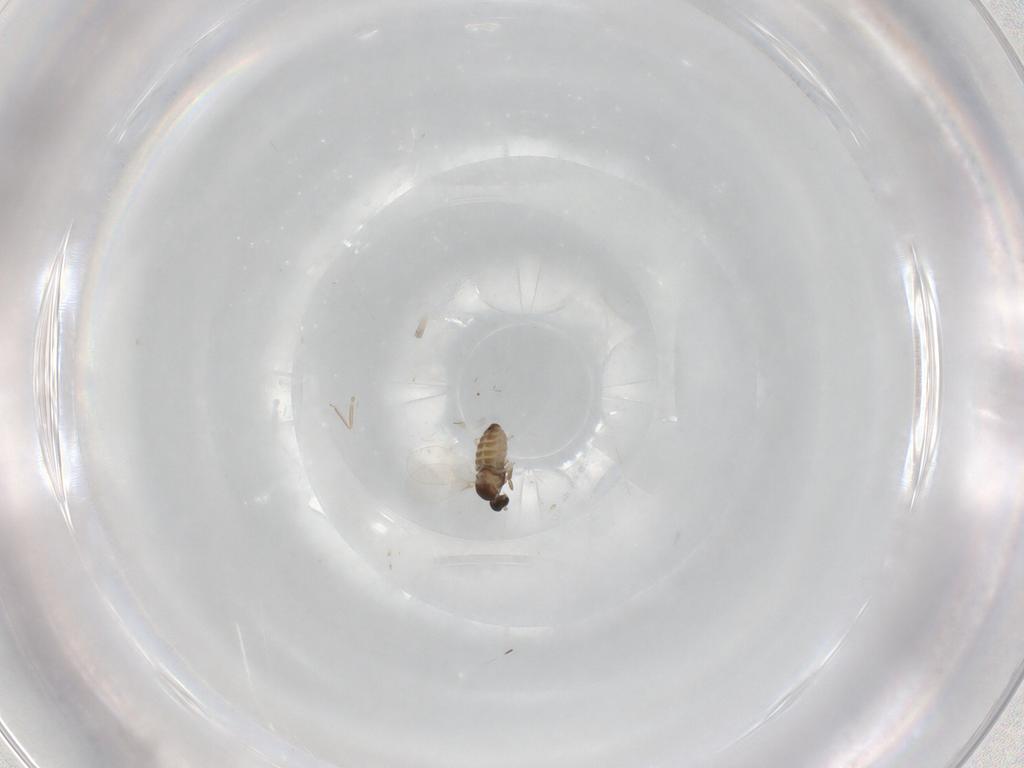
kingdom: Animalia
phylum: Arthropoda
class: Insecta
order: Diptera
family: Cecidomyiidae
